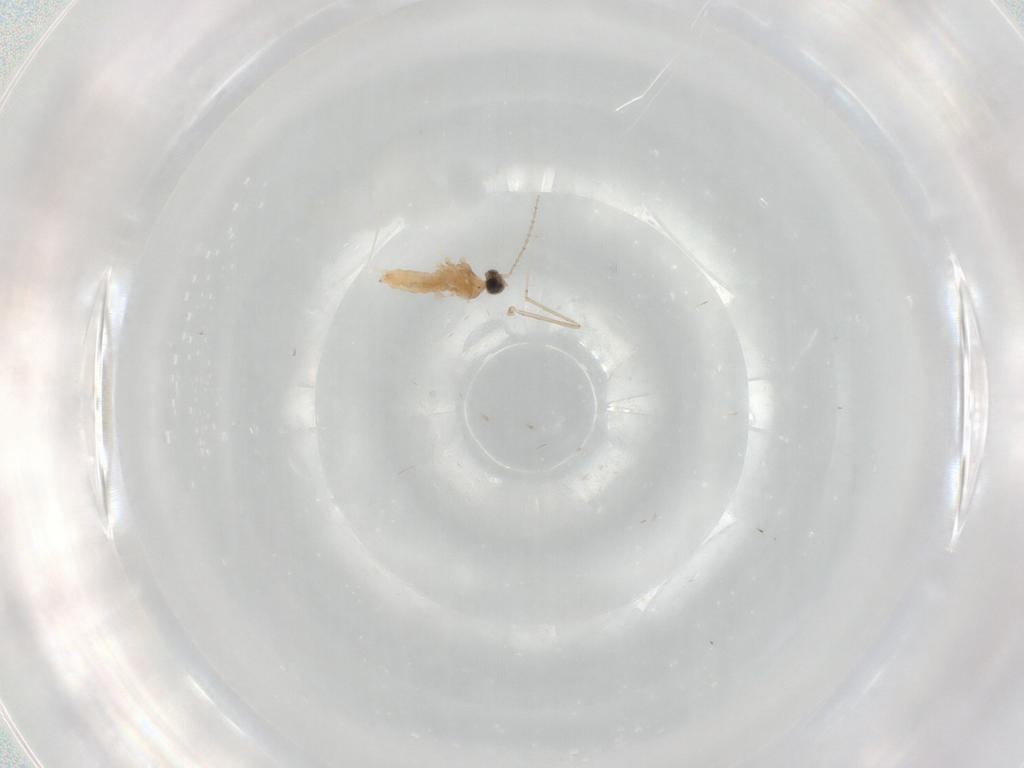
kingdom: Animalia
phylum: Arthropoda
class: Insecta
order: Diptera
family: Cecidomyiidae
